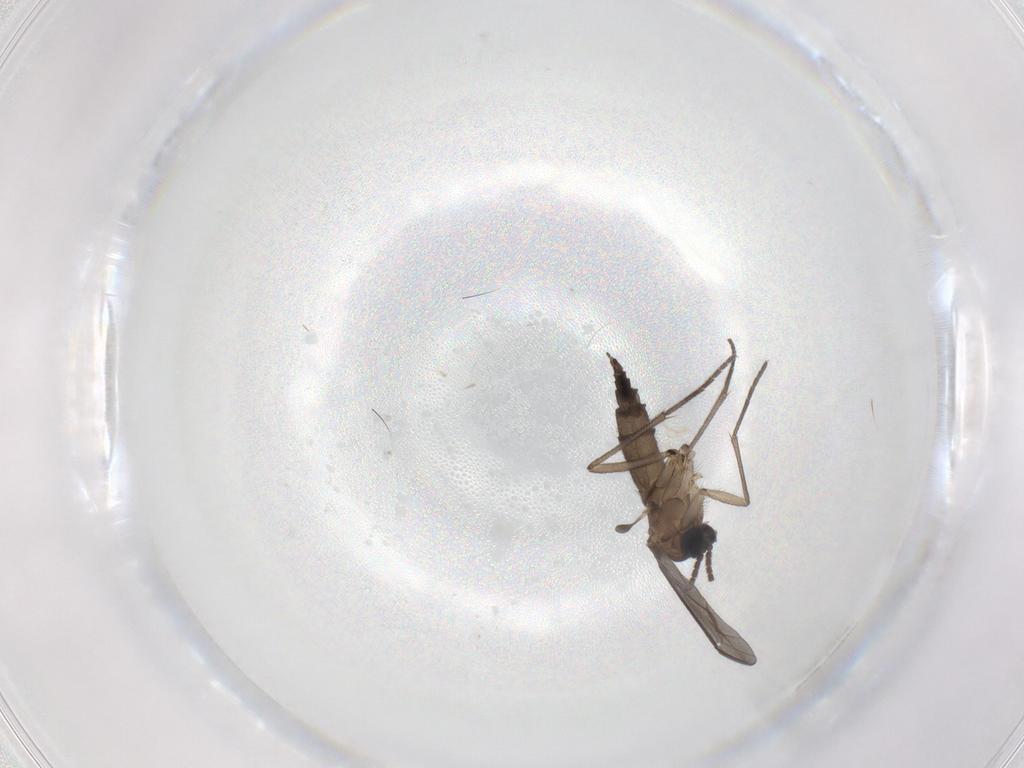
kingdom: Animalia
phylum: Arthropoda
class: Insecta
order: Diptera
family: Sciaridae
